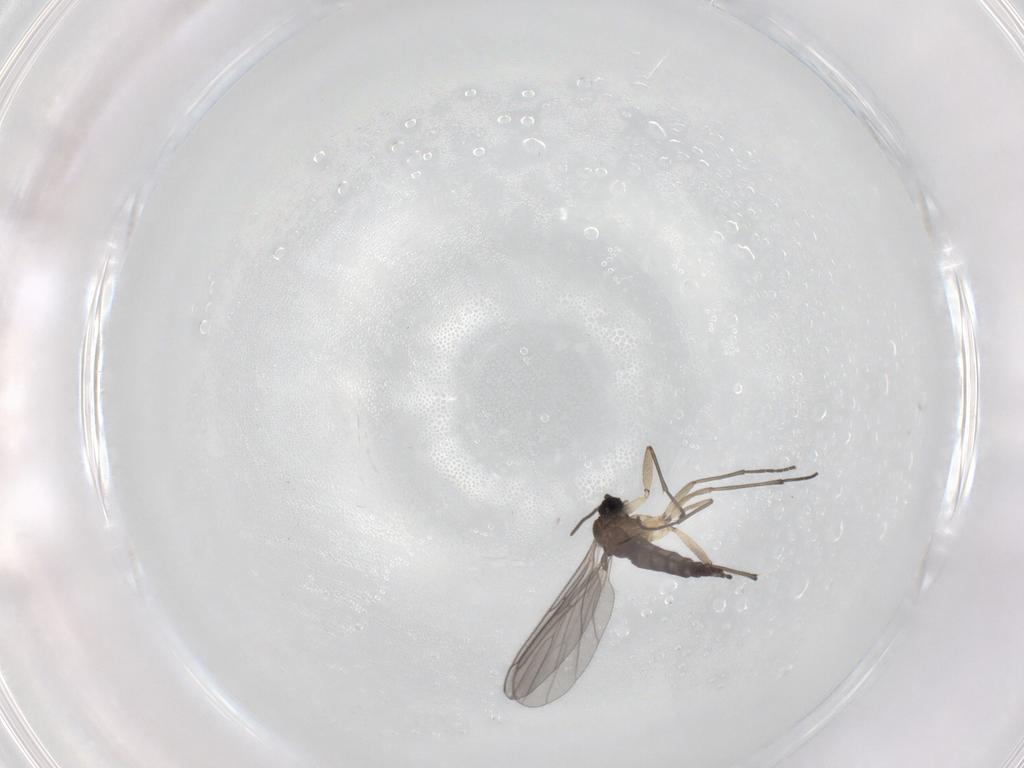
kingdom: Animalia
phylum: Arthropoda
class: Insecta
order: Diptera
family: Sciaridae
